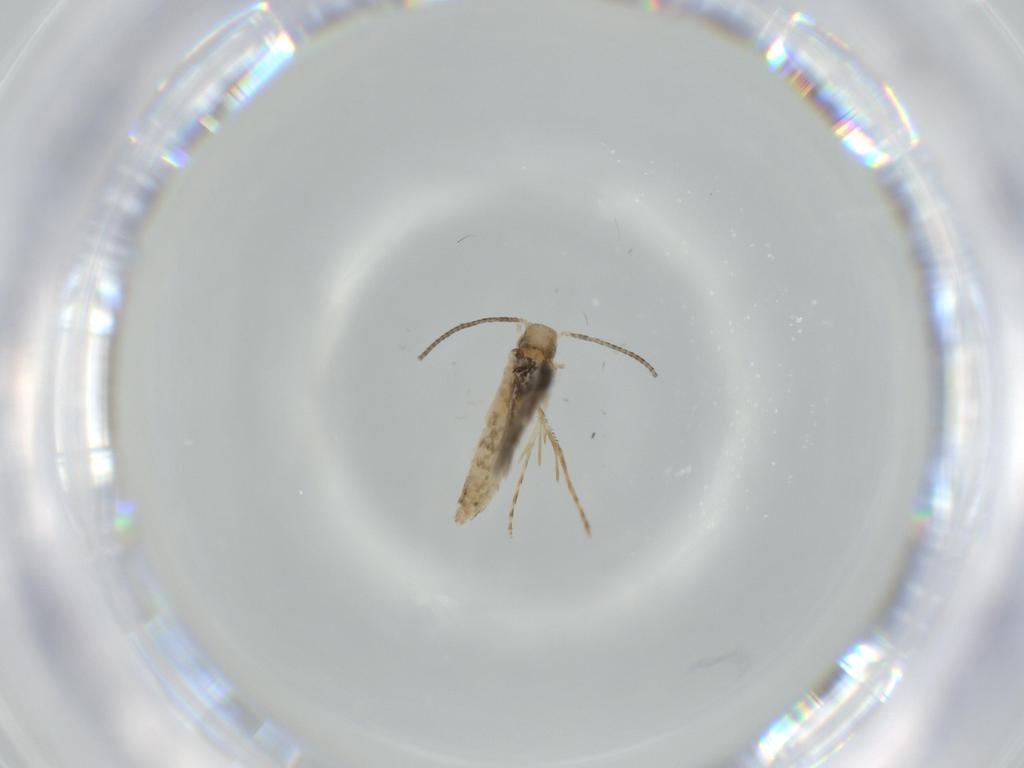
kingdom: Animalia
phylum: Arthropoda
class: Insecta
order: Lepidoptera
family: Gracillariidae
